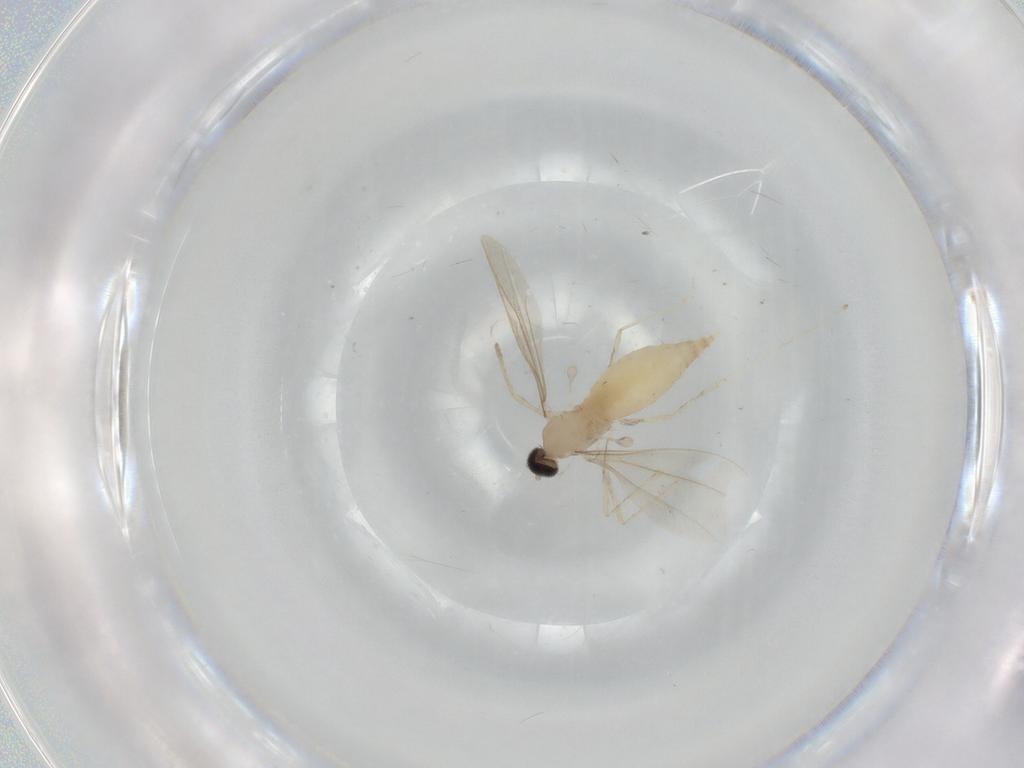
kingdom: Animalia
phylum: Arthropoda
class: Insecta
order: Diptera
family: Cecidomyiidae
